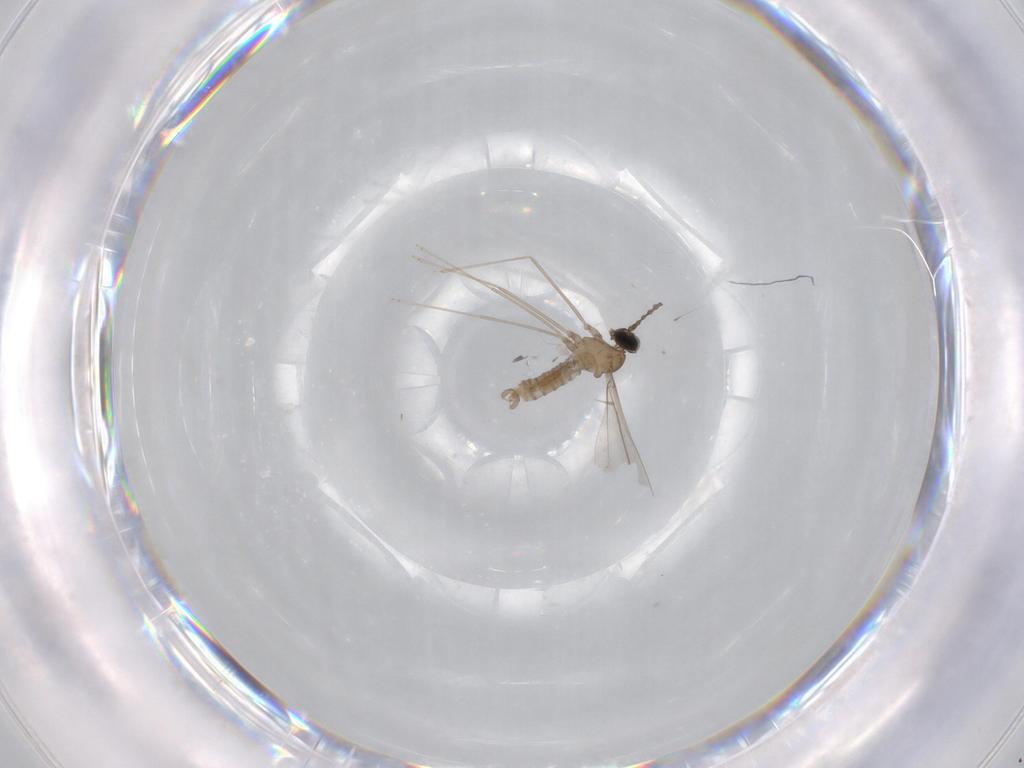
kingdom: Animalia
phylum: Arthropoda
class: Insecta
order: Diptera
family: Cecidomyiidae
